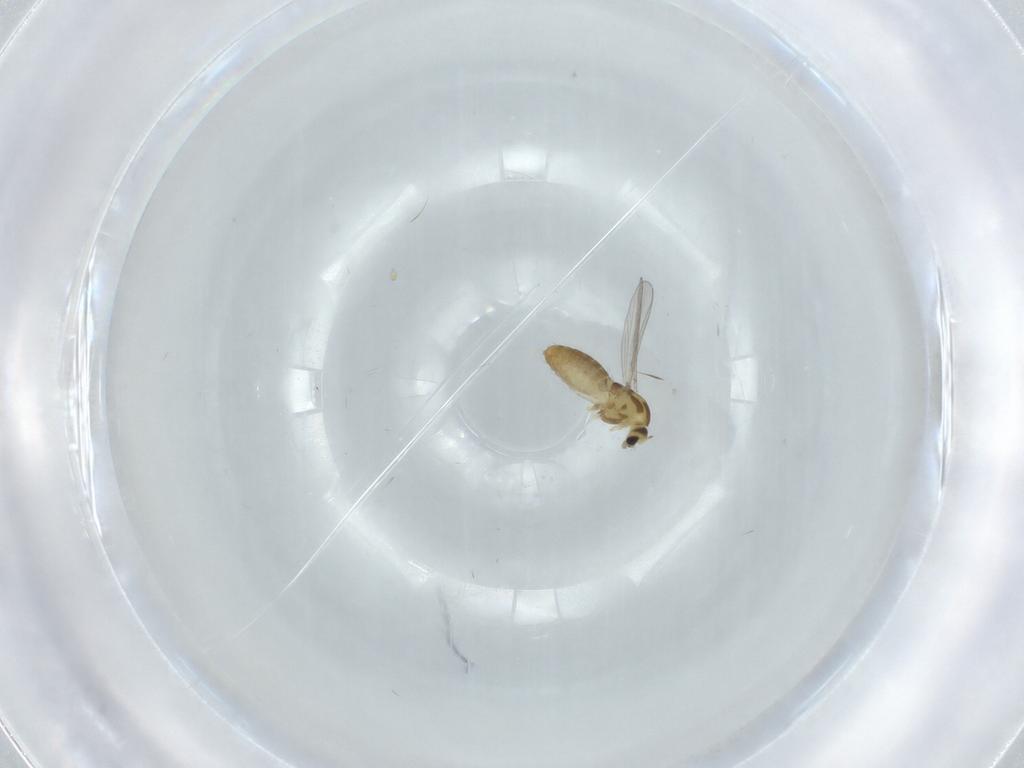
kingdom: Animalia
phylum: Arthropoda
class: Insecta
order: Diptera
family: Chironomidae
